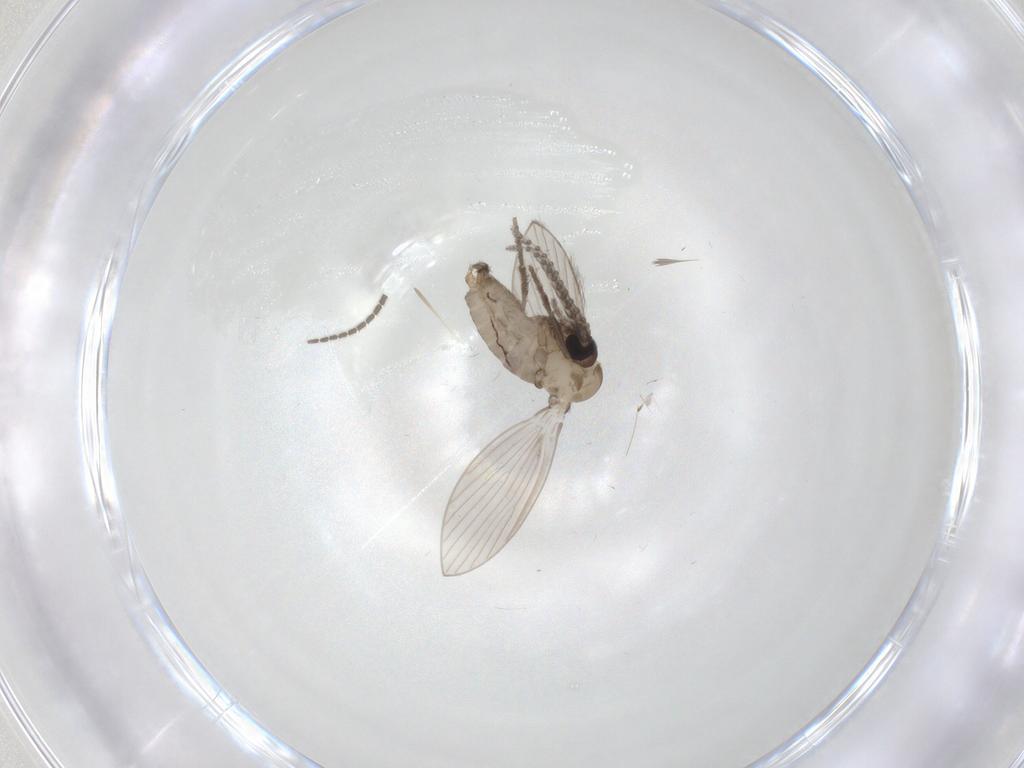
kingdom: Animalia
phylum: Arthropoda
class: Insecta
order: Diptera
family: Psychodidae
